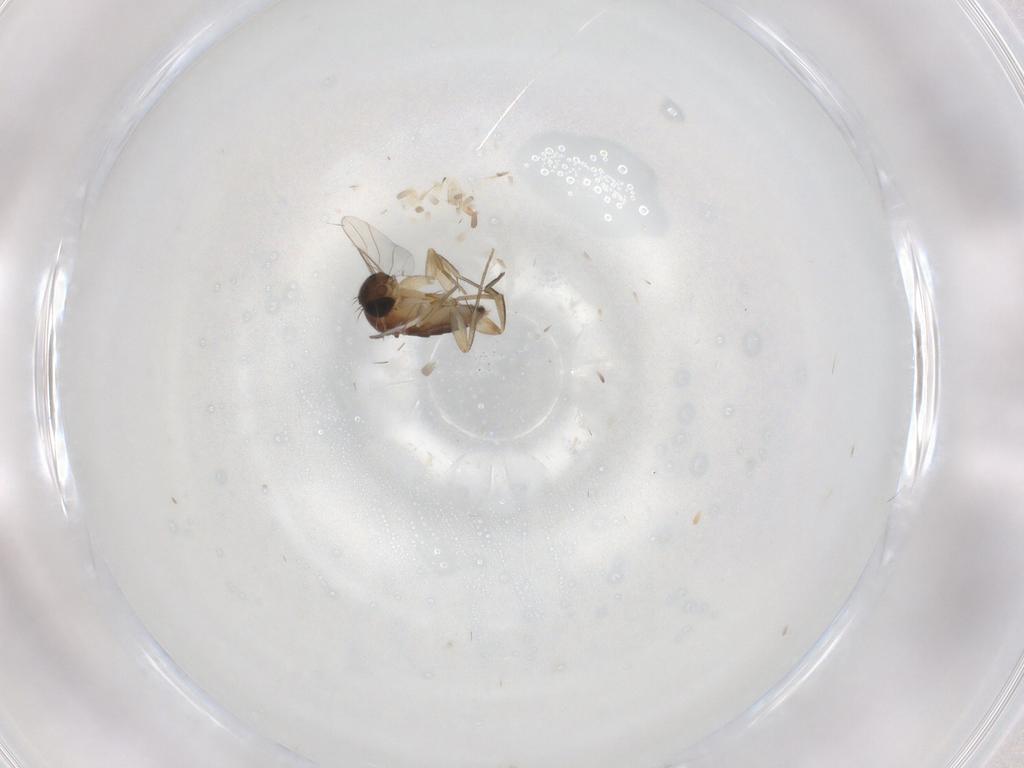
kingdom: Animalia
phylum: Arthropoda
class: Insecta
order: Diptera
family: Phoridae
